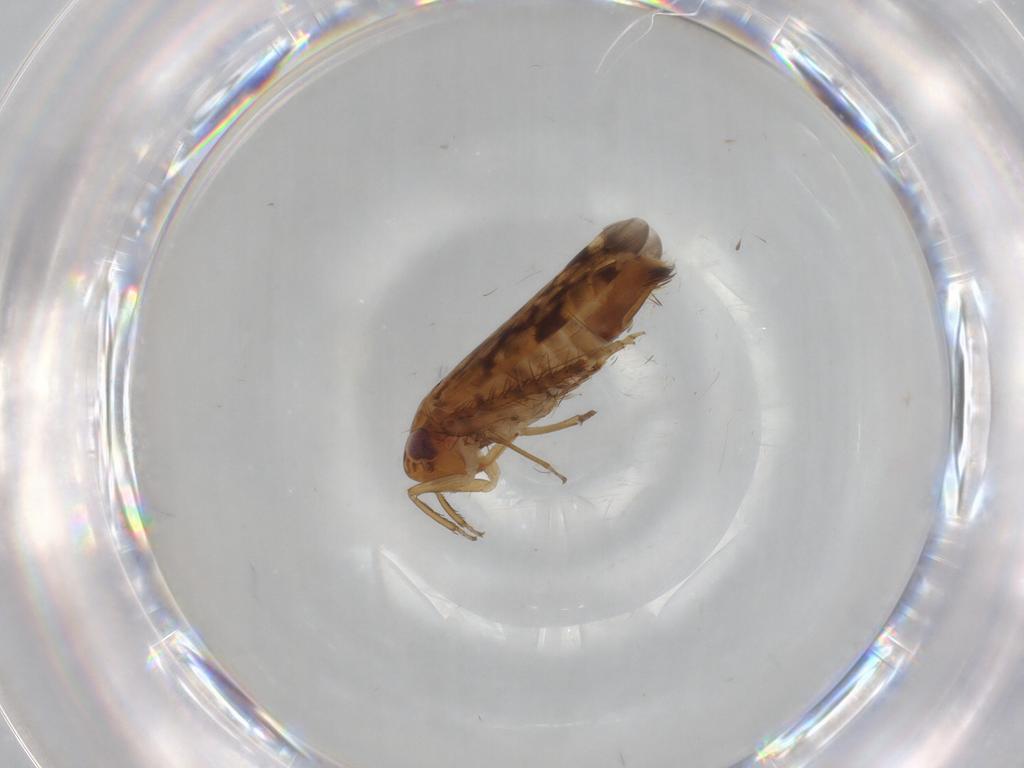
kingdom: Animalia
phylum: Arthropoda
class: Insecta
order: Hemiptera
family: Cicadellidae
